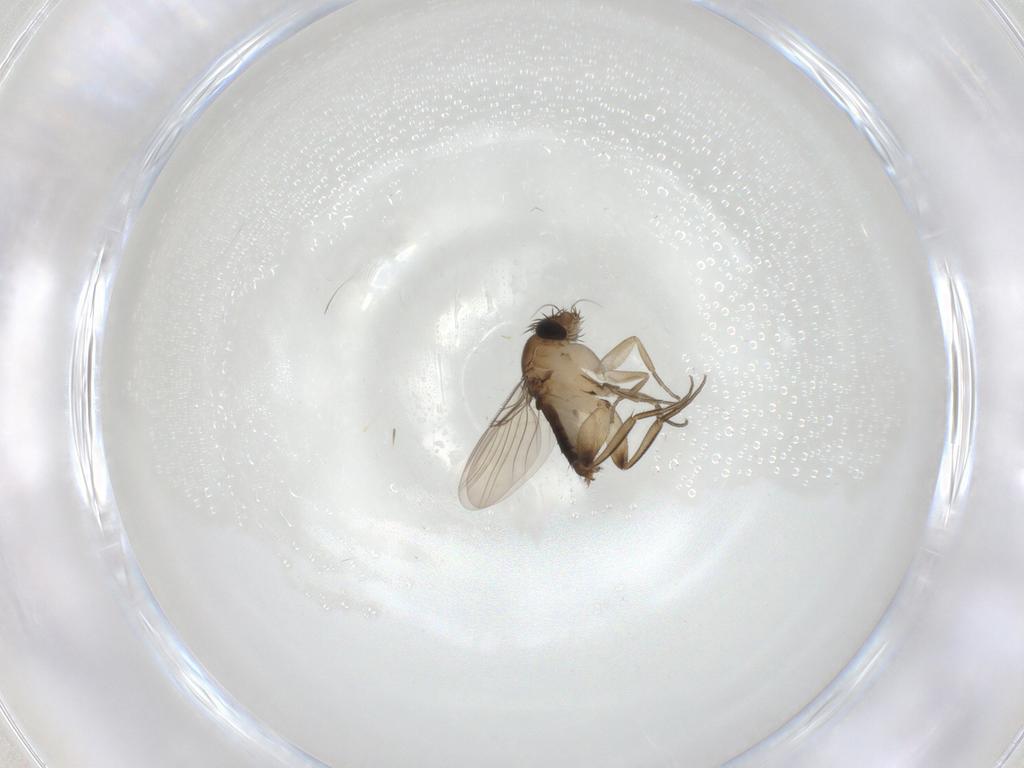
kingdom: Animalia
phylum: Arthropoda
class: Insecta
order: Diptera
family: Phoridae
